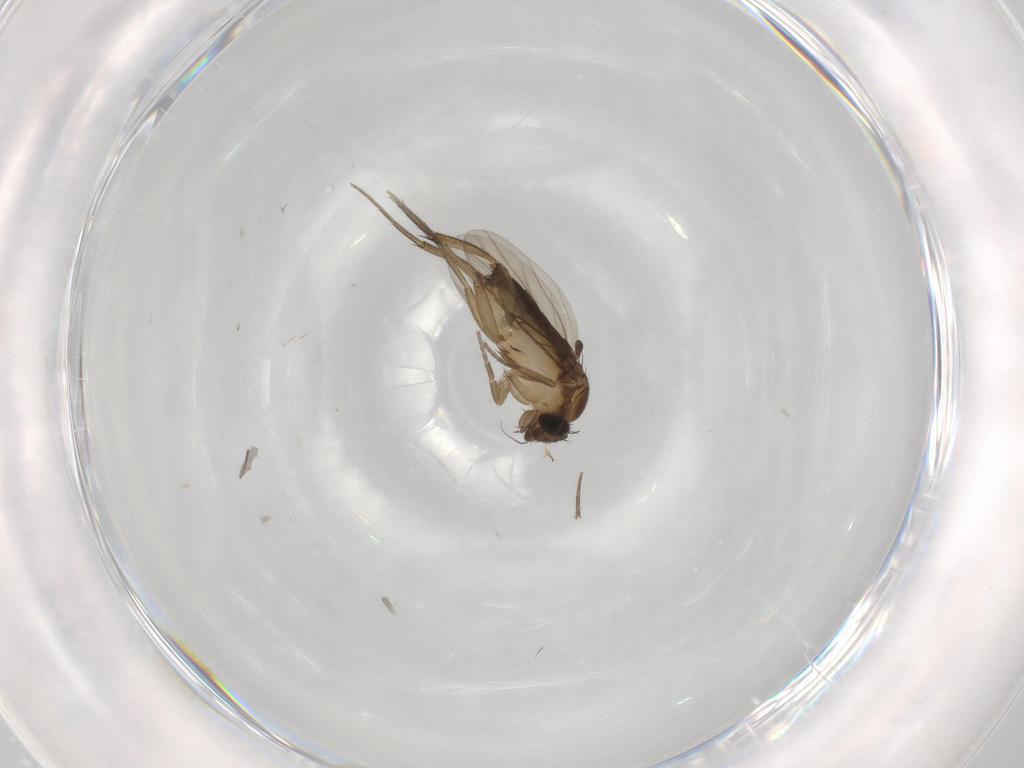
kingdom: Animalia
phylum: Arthropoda
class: Insecta
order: Diptera
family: Phoridae
